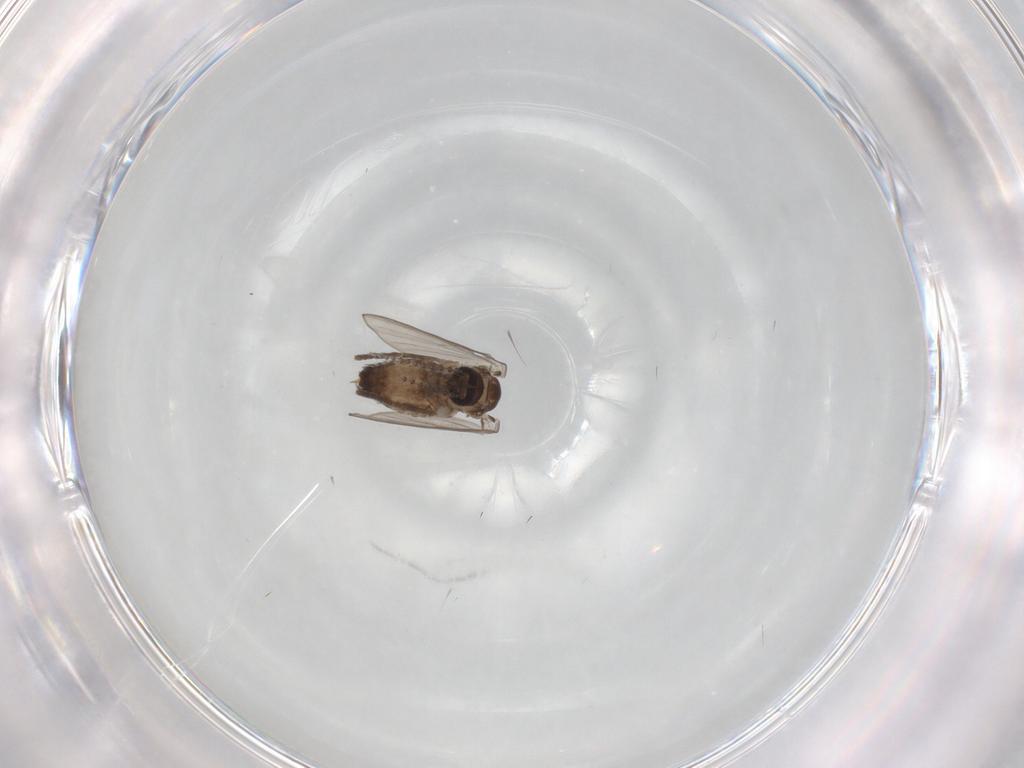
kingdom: Animalia
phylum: Arthropoda
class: Insecta
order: Diptera
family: Psychodidae
